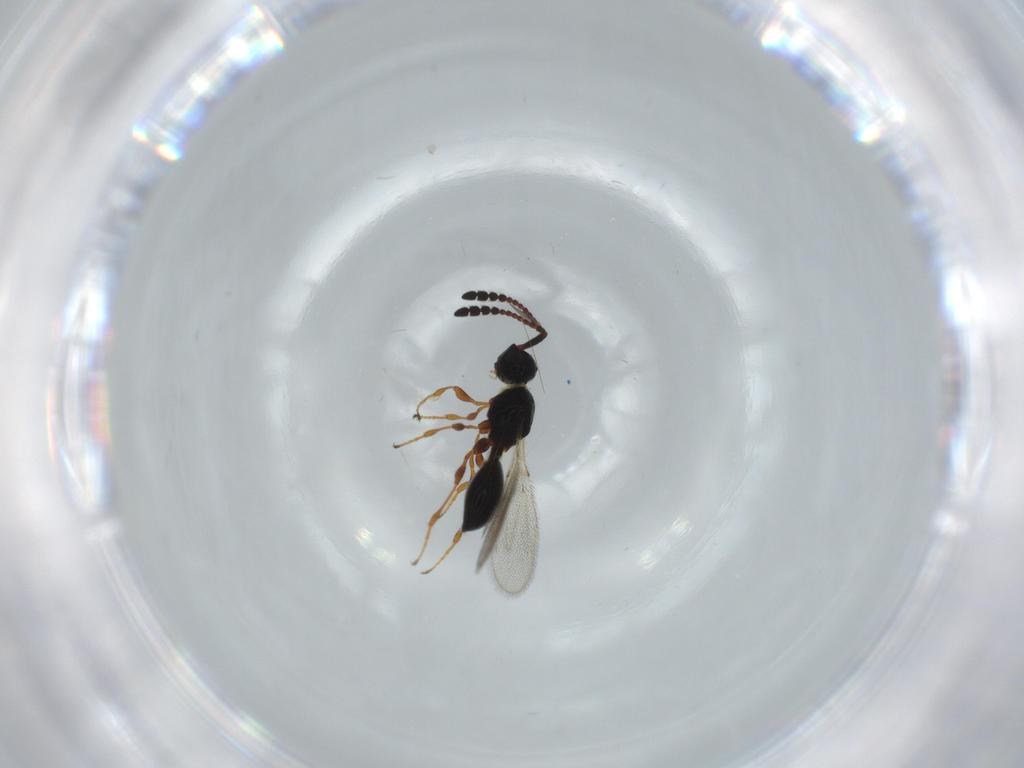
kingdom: Animalia
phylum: Arthropoda
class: Insecta
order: Hymenoptera
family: Diapriidae
